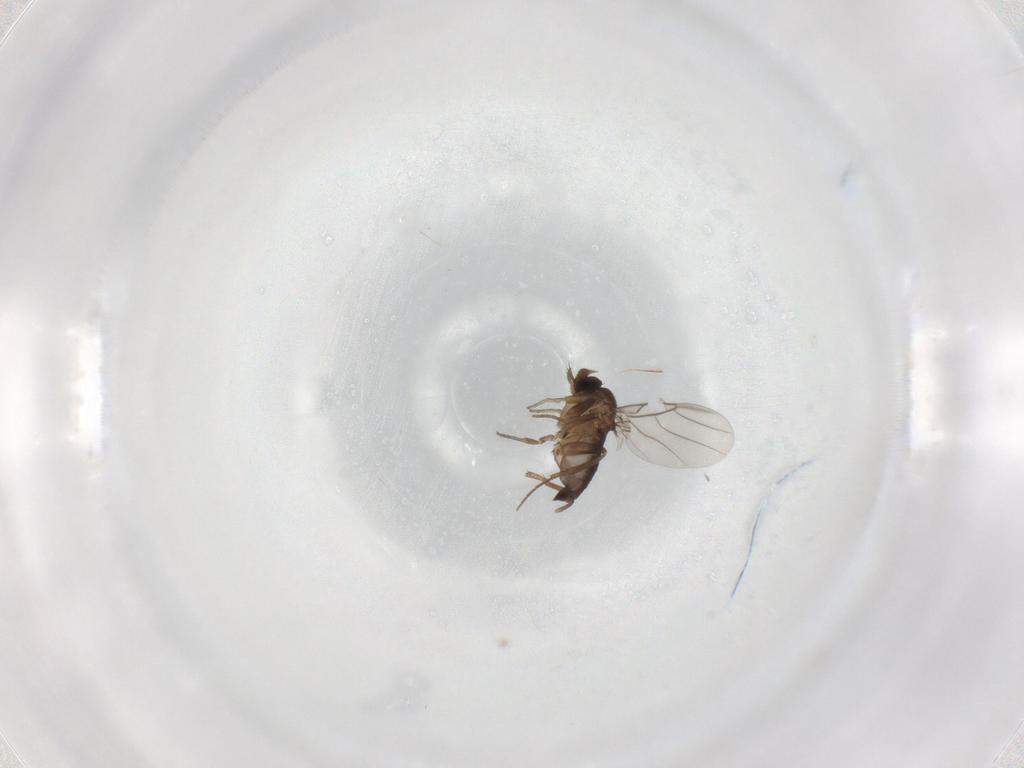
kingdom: Animalia
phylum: Arthropoda
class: Insecta
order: Diptera
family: Phoridae
